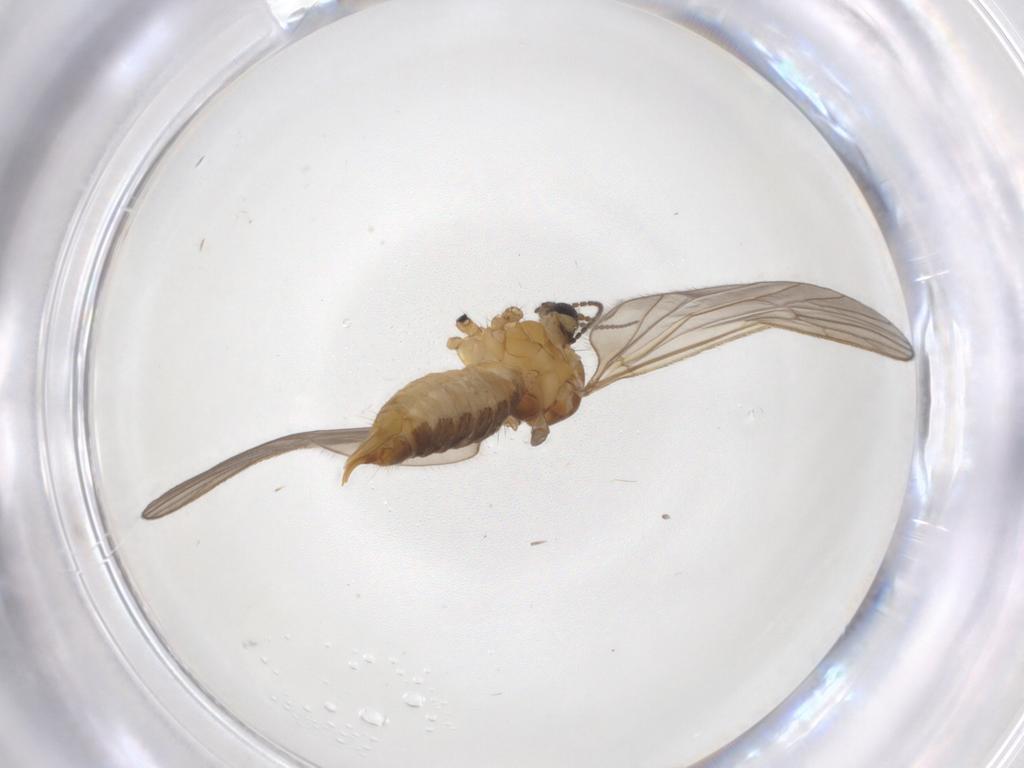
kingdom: Animalia
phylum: Arthropoda
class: Insecta
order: Diptera
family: Limoniidae
